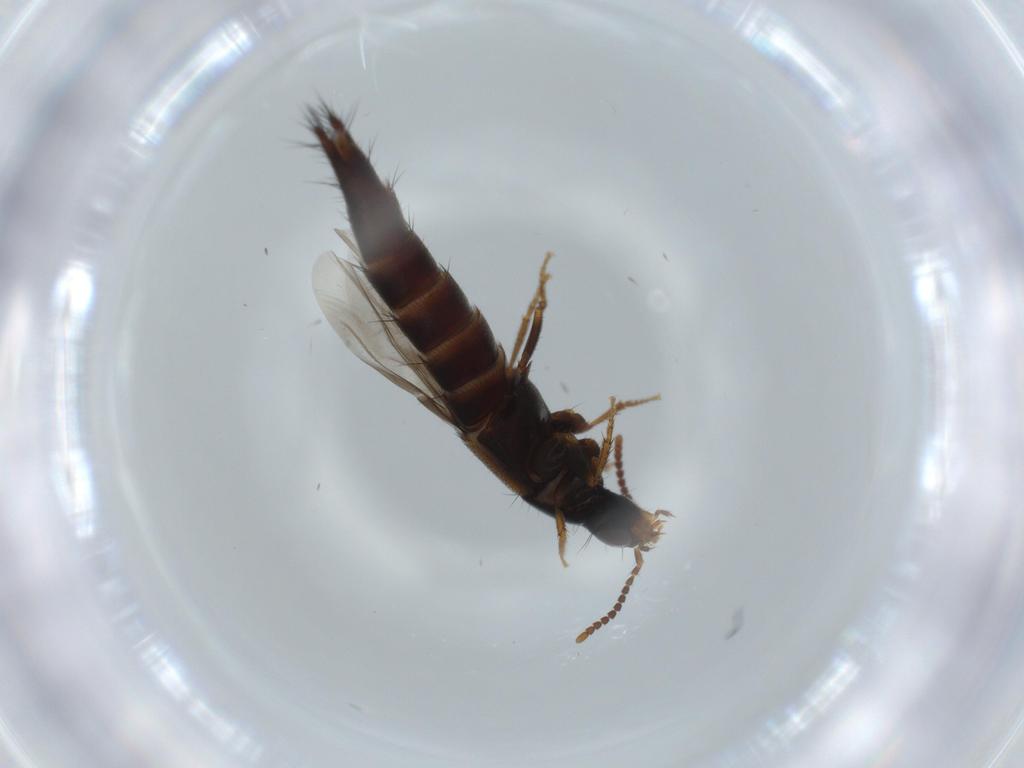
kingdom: Animalia
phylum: Arthropoda
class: Insecta
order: Coleoptera
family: Staphylinidae
